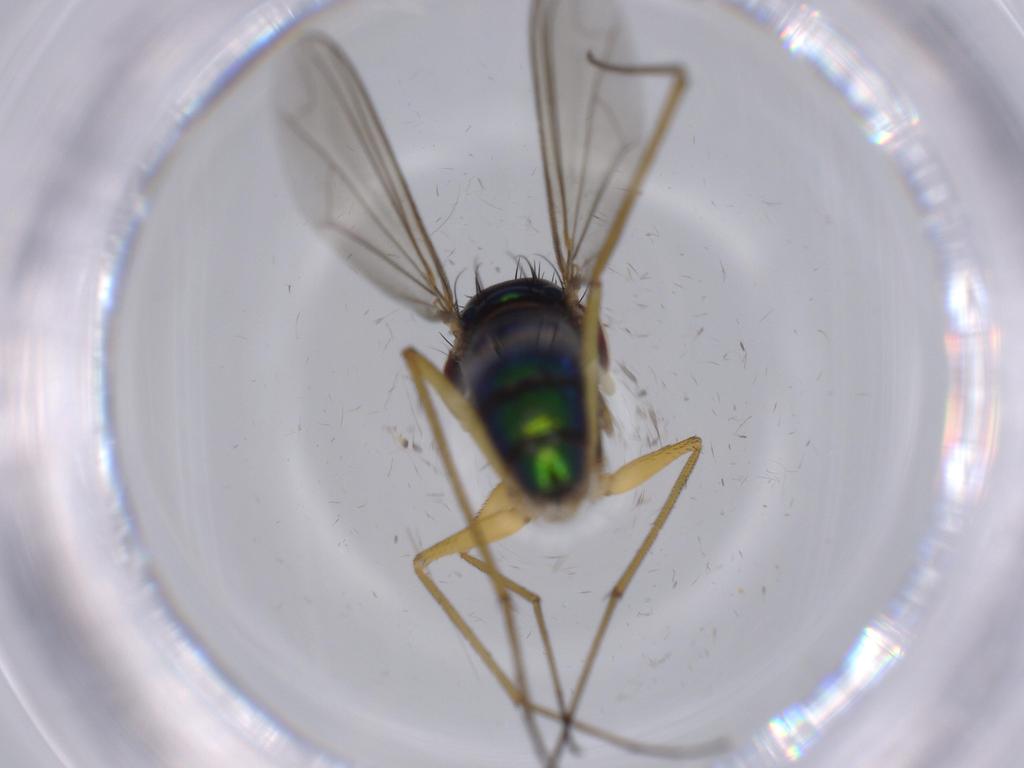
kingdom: Animalia
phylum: Arthropoda
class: Insecta
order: Diptera
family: Dolichopodidae
